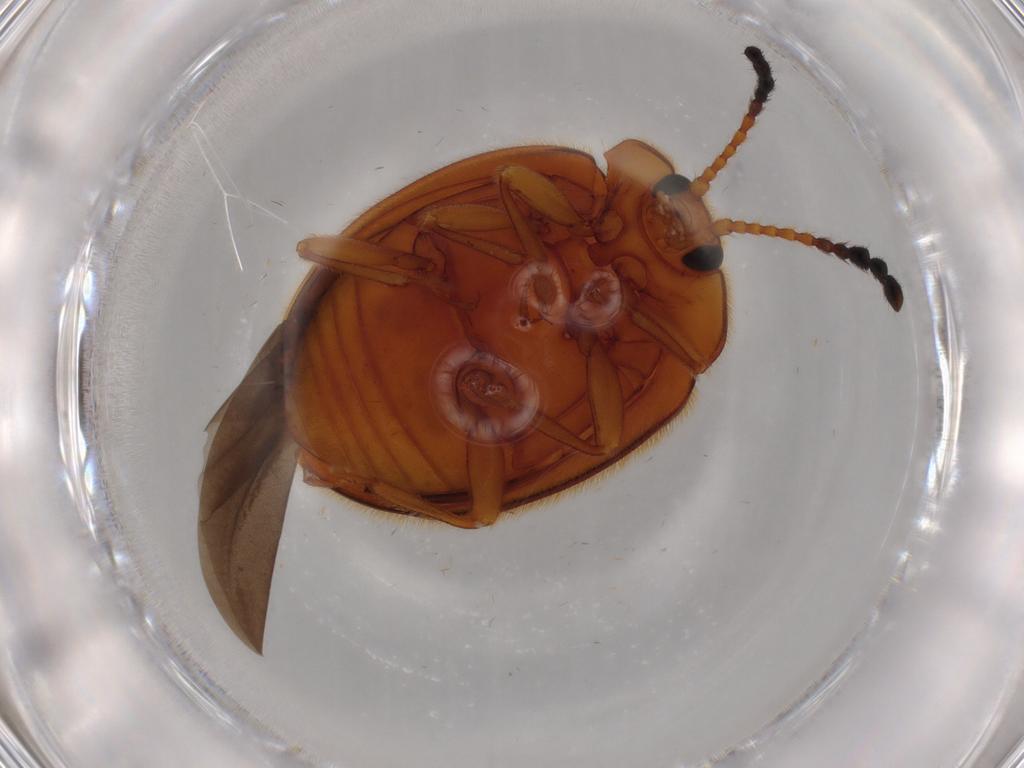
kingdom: Animalia
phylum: Arthropoda
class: Insecta
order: Coleoptera
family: Endomychidae
